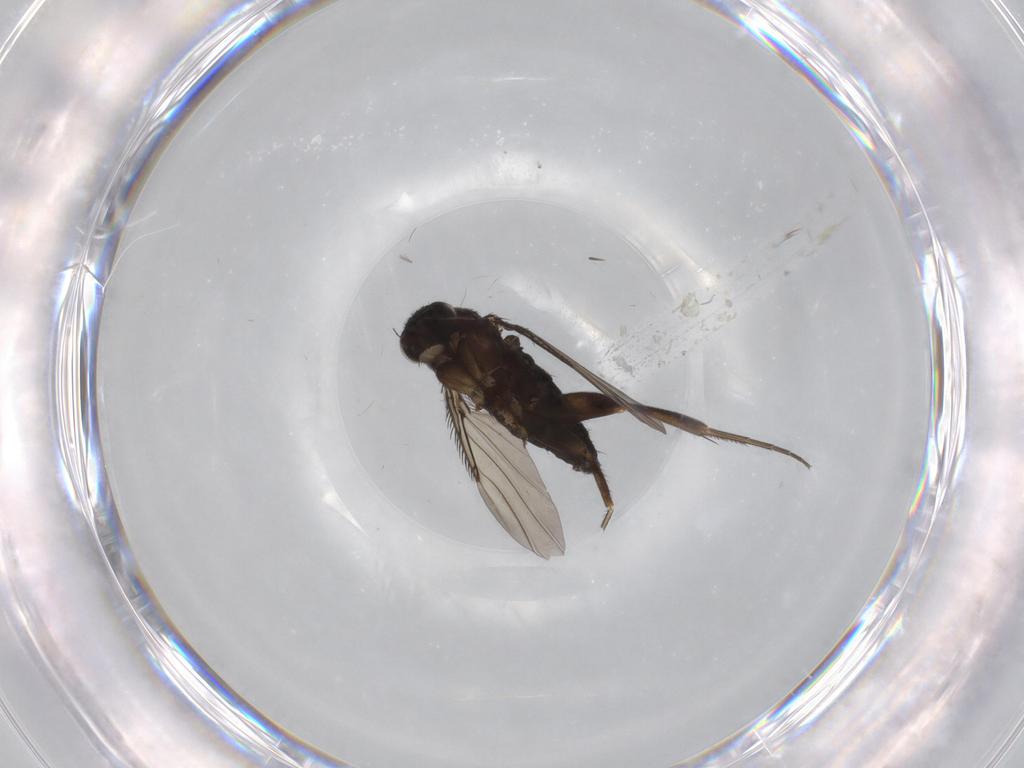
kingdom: Animalia
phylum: Arthropoda
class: Insecta
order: Diptera
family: Phoridae
